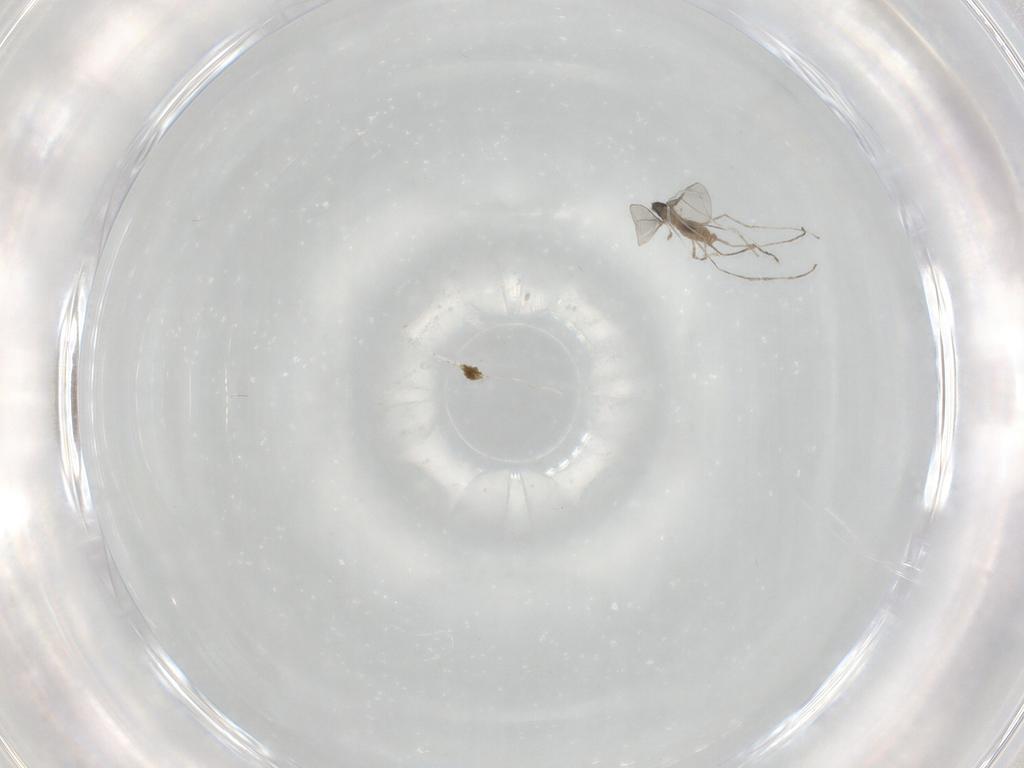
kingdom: Animalia
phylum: Arthropoda
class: Insecta
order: Diptera
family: Cecidomyiidae
